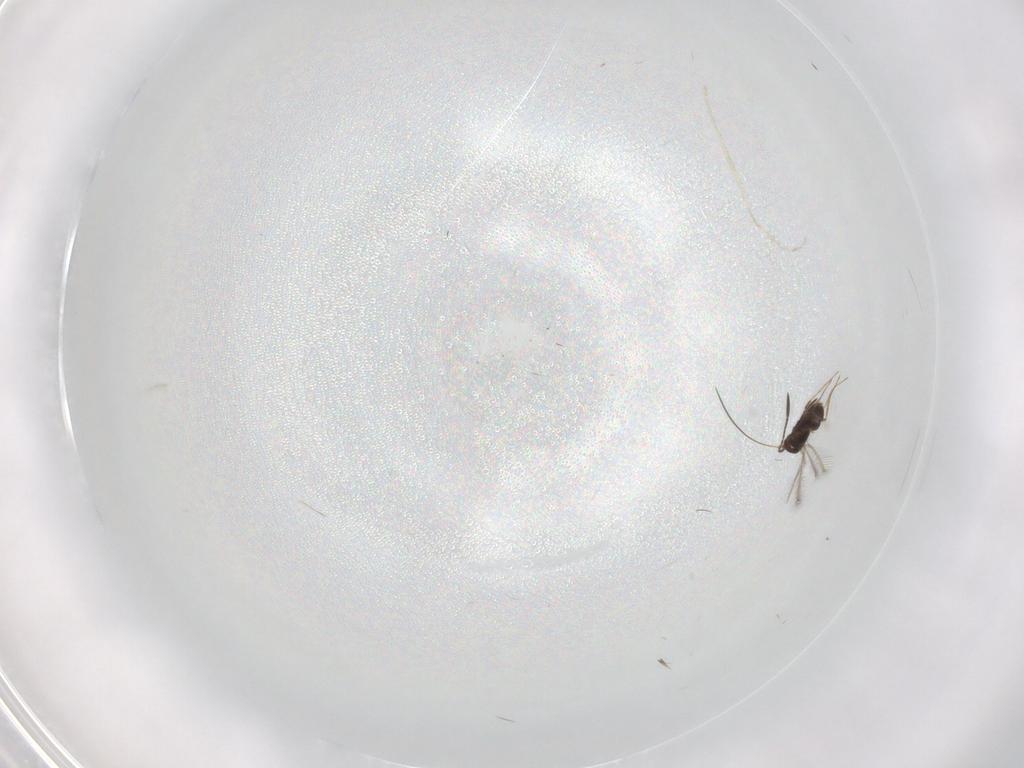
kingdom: Animalia
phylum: Arthropoda
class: Insecta
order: Hymenoptera
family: Mymaridae
